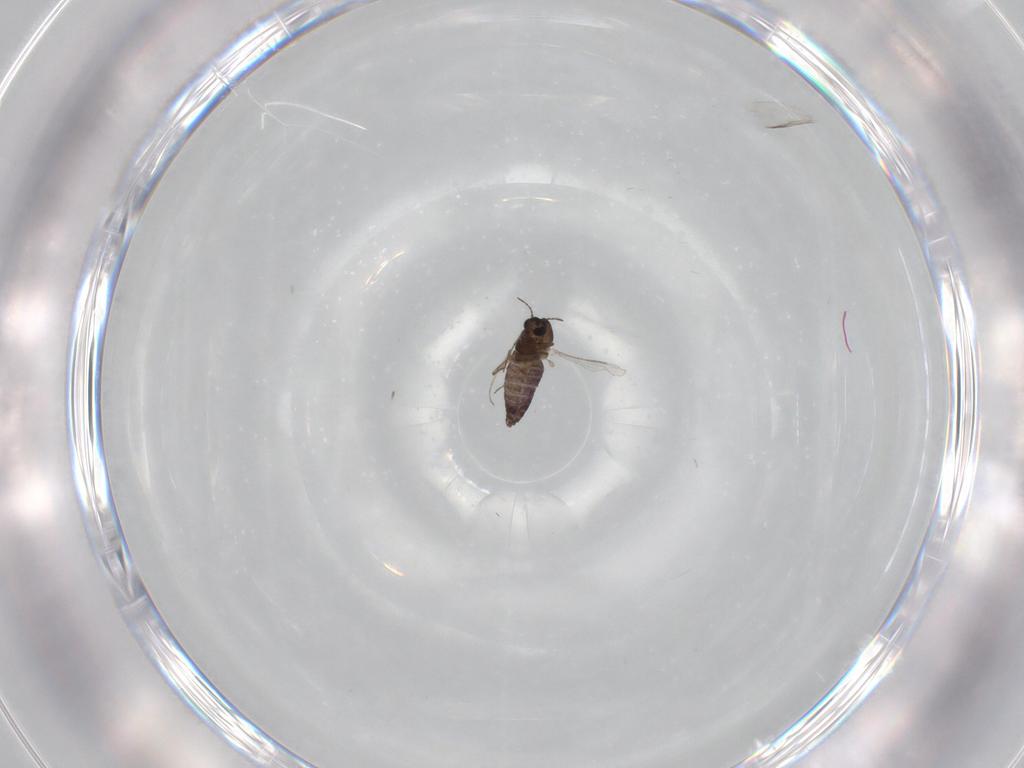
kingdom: Animalia
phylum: Arthropoda
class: Insecta
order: Diptera
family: Chironomidae
